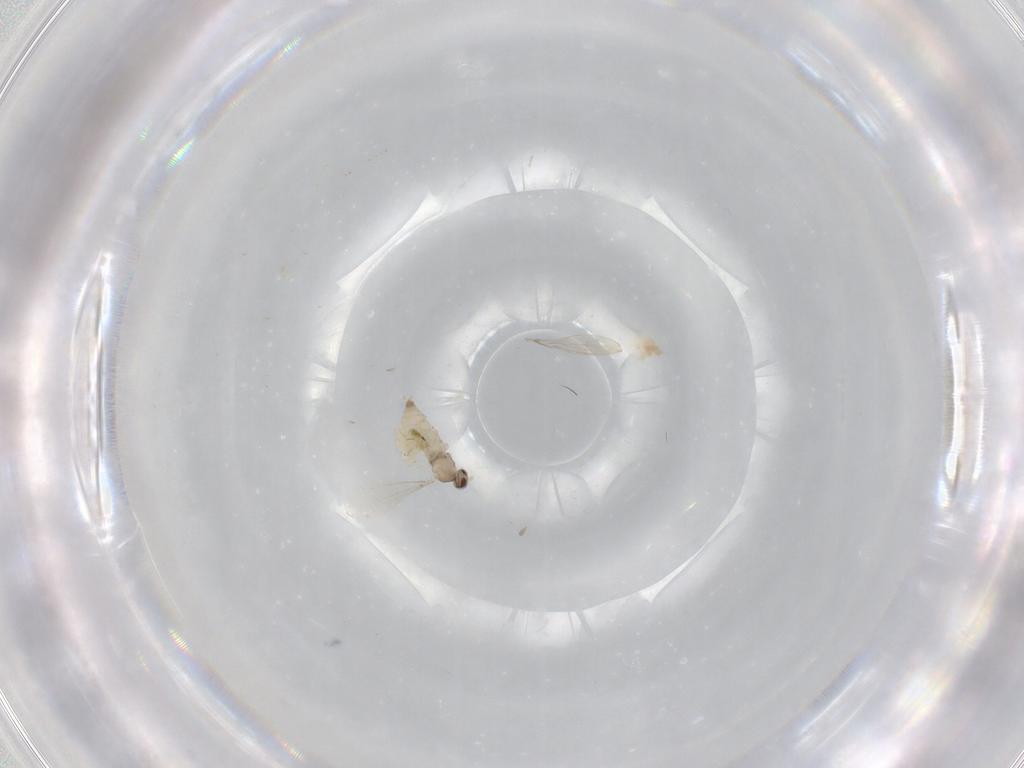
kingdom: Animalia
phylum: Arthropoda
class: Insecta
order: Diptera
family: Cecidomyiidae
